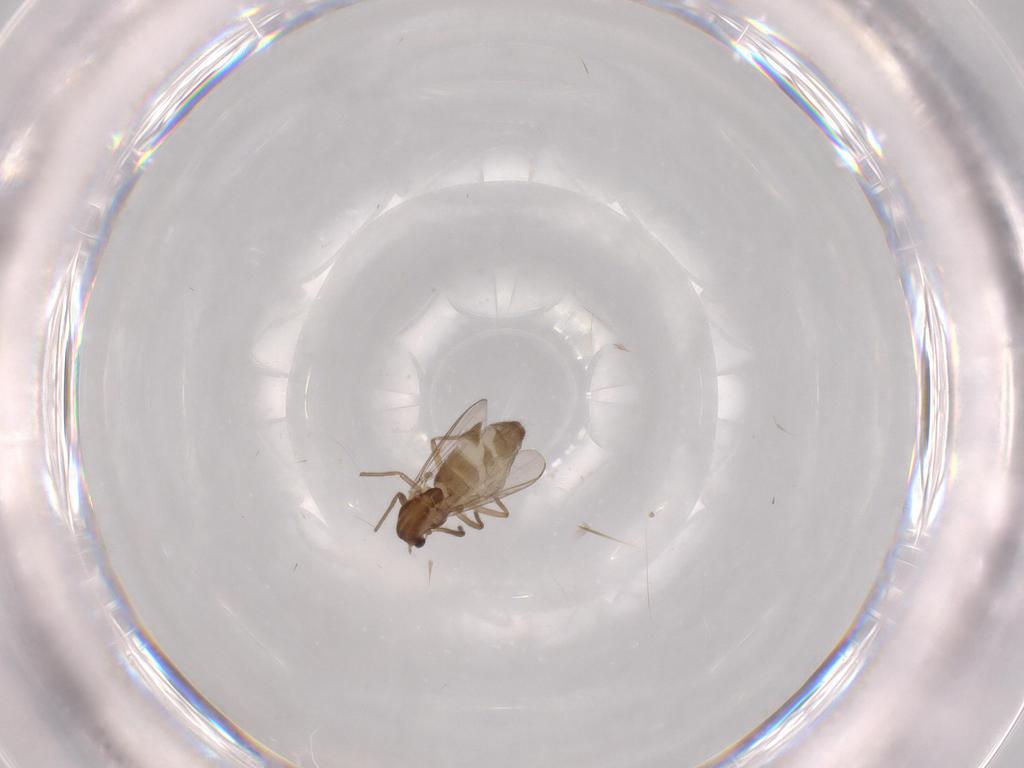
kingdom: Animalia
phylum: Arthropoda
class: Insecta
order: Diptera
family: Chironomidae
